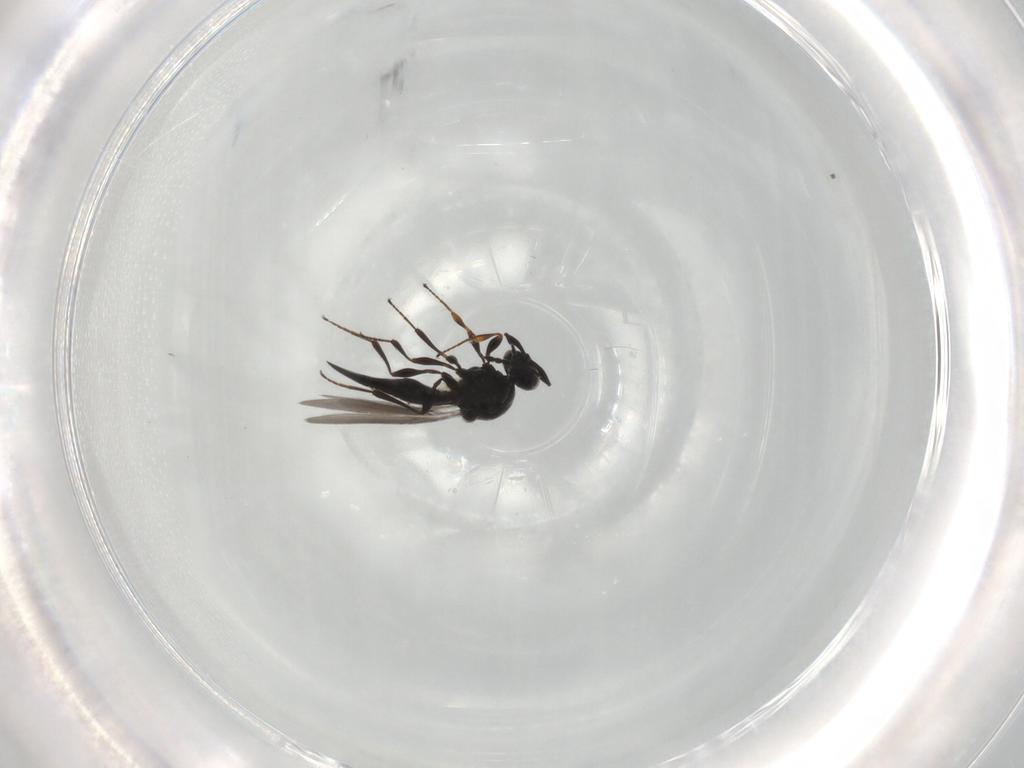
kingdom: Animalia
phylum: Arthropoda
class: Insecta
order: Hymenoptera
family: Platygastridae
